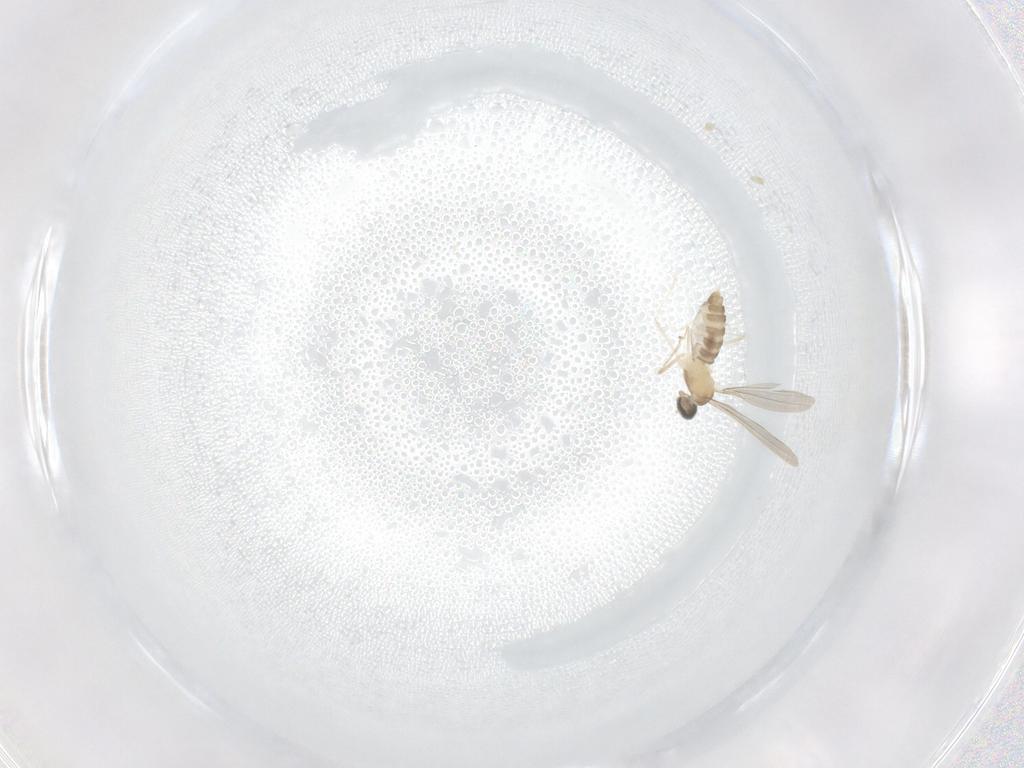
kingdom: Animalia
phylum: Arthropoda
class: Insecta
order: Diptera
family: Cecidomyiidae
